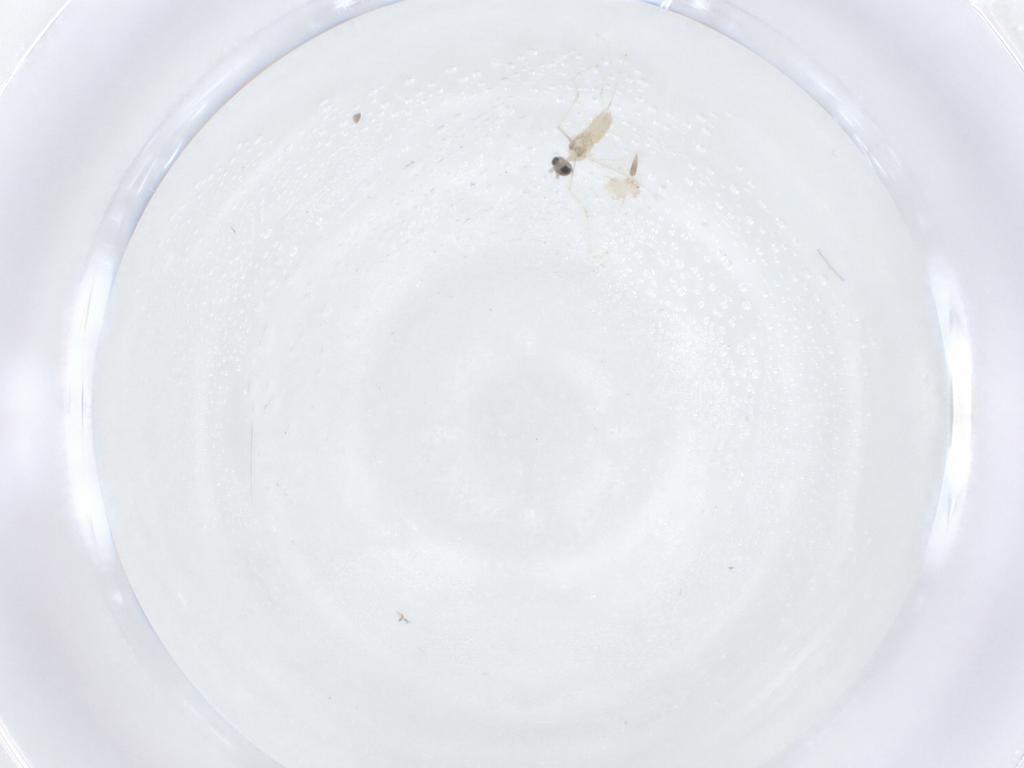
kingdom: Animalia
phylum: Arthropoda
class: Insecta
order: Diptera
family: Cecidomyiidae
